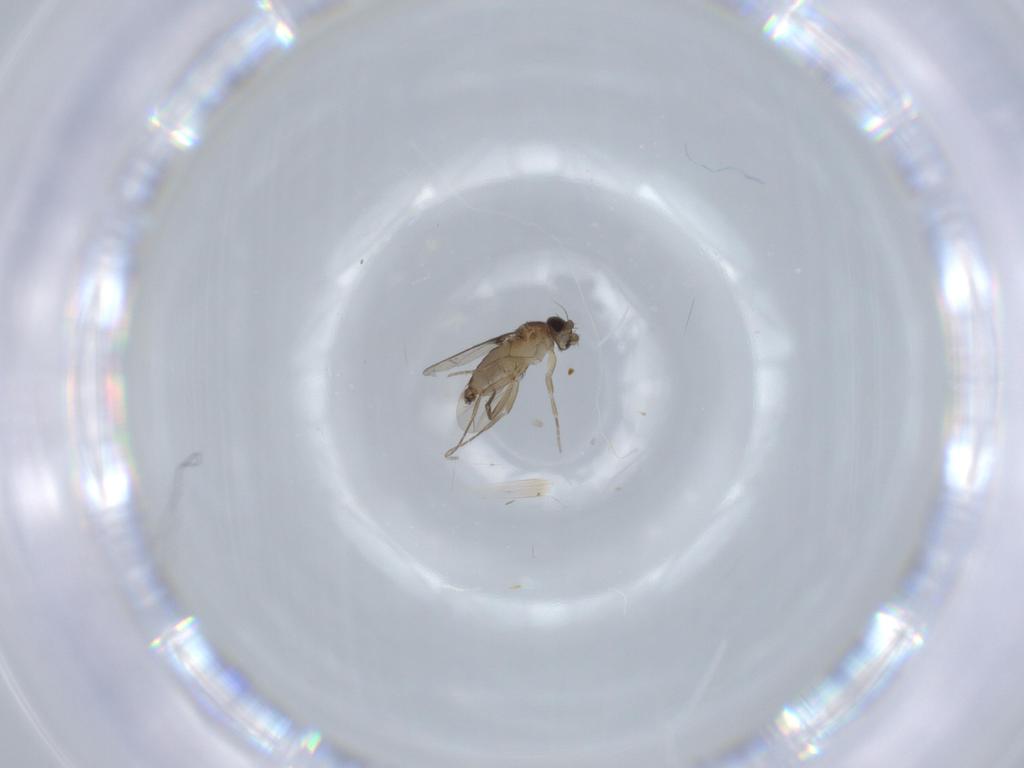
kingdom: Animalia
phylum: Arthropoda
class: Insecta
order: Diptera
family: Phoridae
